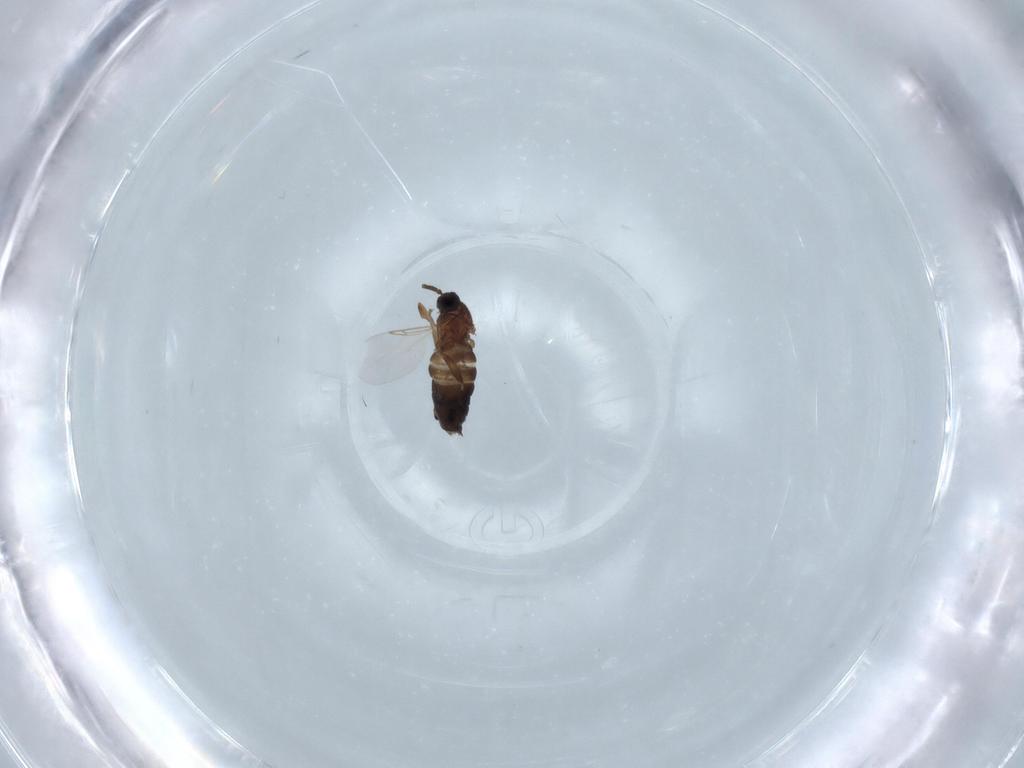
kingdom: Animalia
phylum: Arthropoda
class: Insecta
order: Diptera
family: Scatopsidae
